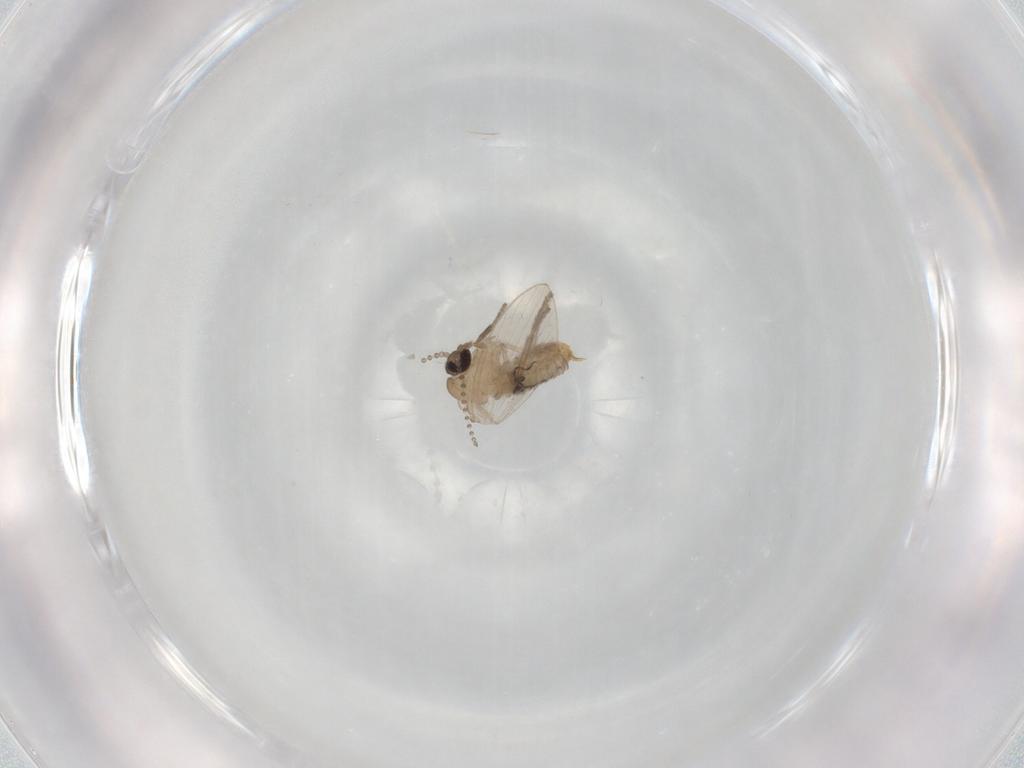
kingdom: Animalia
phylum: Arthropoda
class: Insecta
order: Diptera
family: Psychodidae
